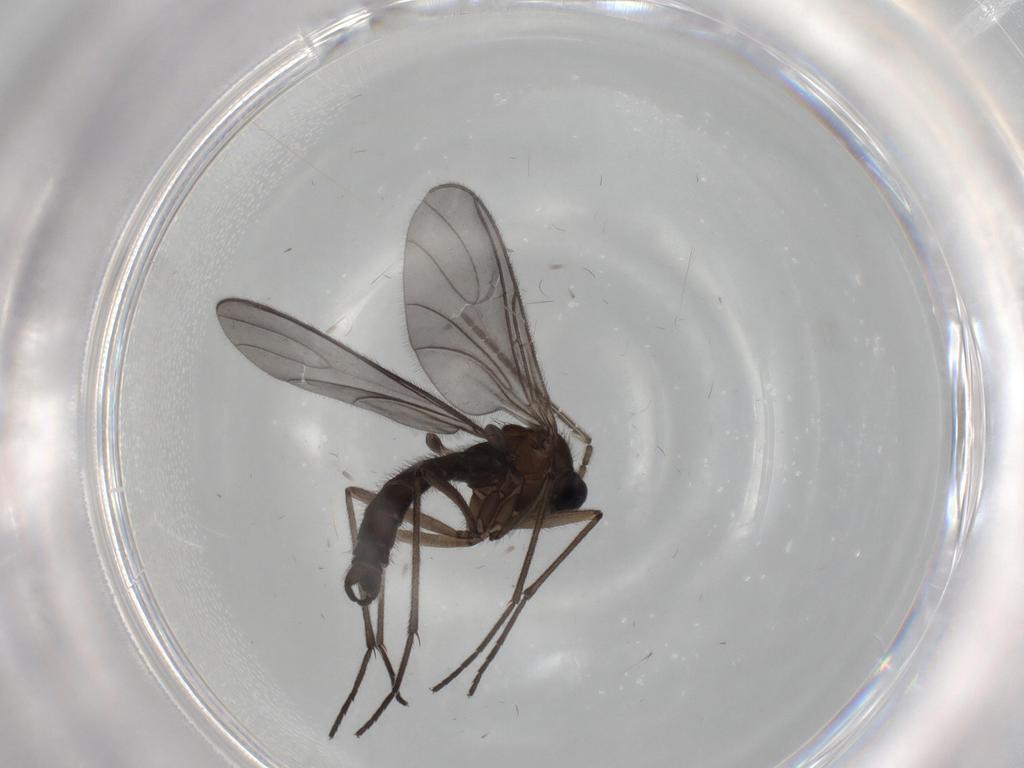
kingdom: Animalia
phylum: Arthropoda
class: Insecta
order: Diptera
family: Sciaridae
